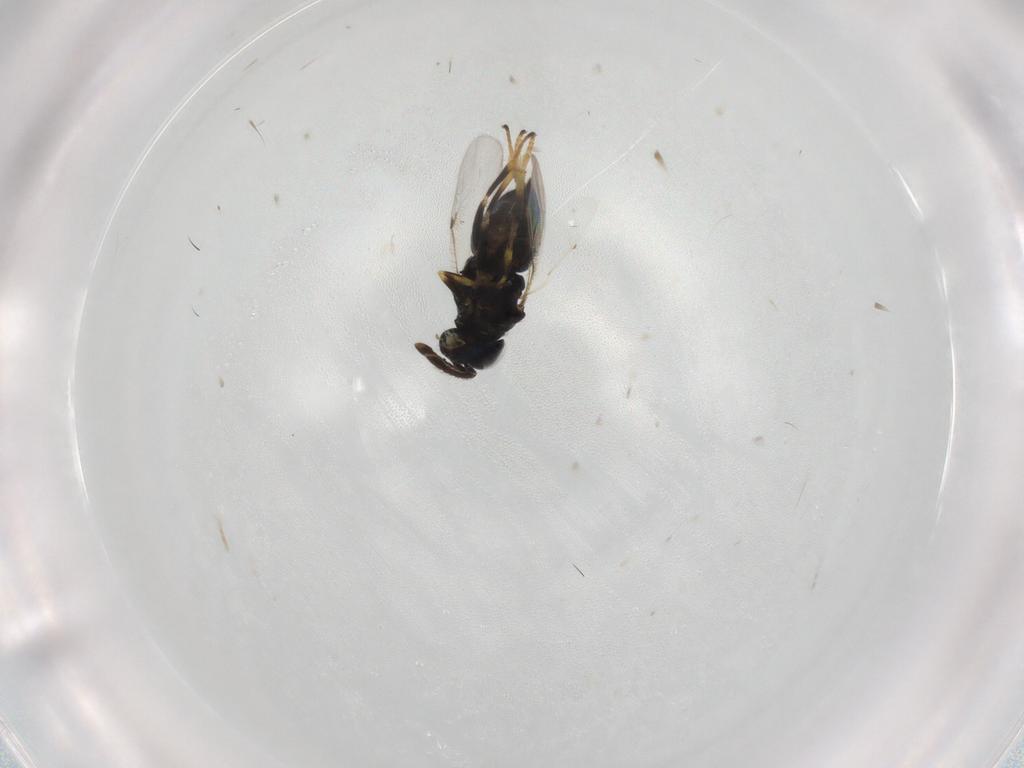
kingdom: Animalia
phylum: Arthropoda
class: Insecta
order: Hymenoptera
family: Encyrtidae
